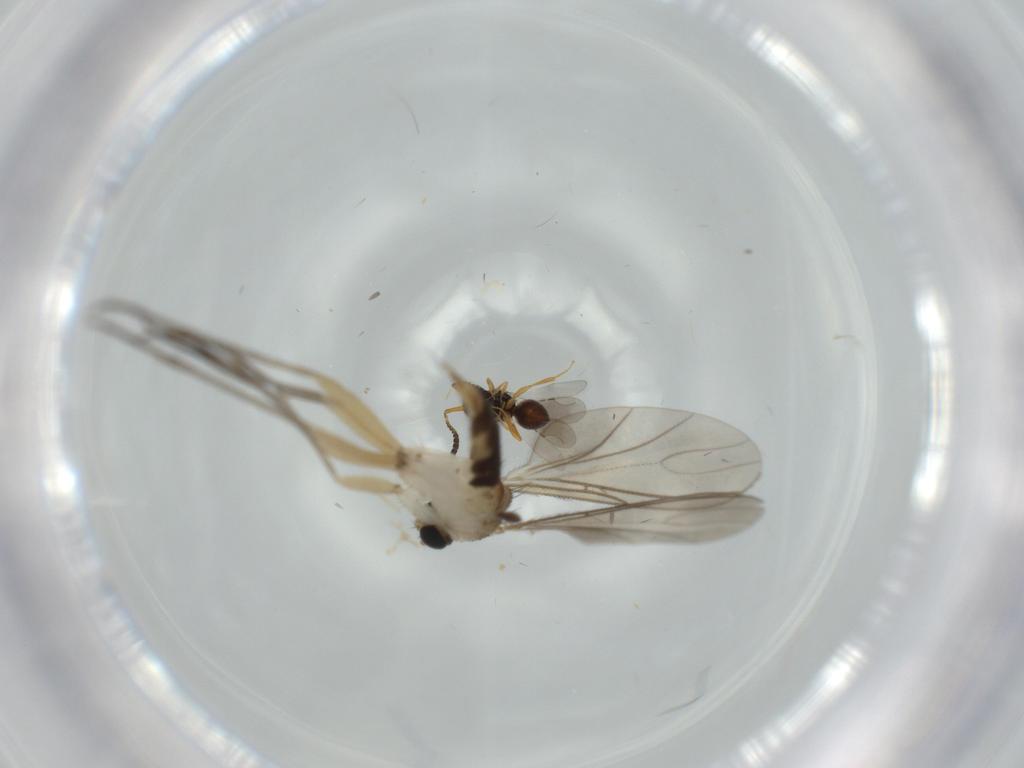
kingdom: Animalia
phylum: Arthropoda
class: Insecta
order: Diptera
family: Sciaridae
